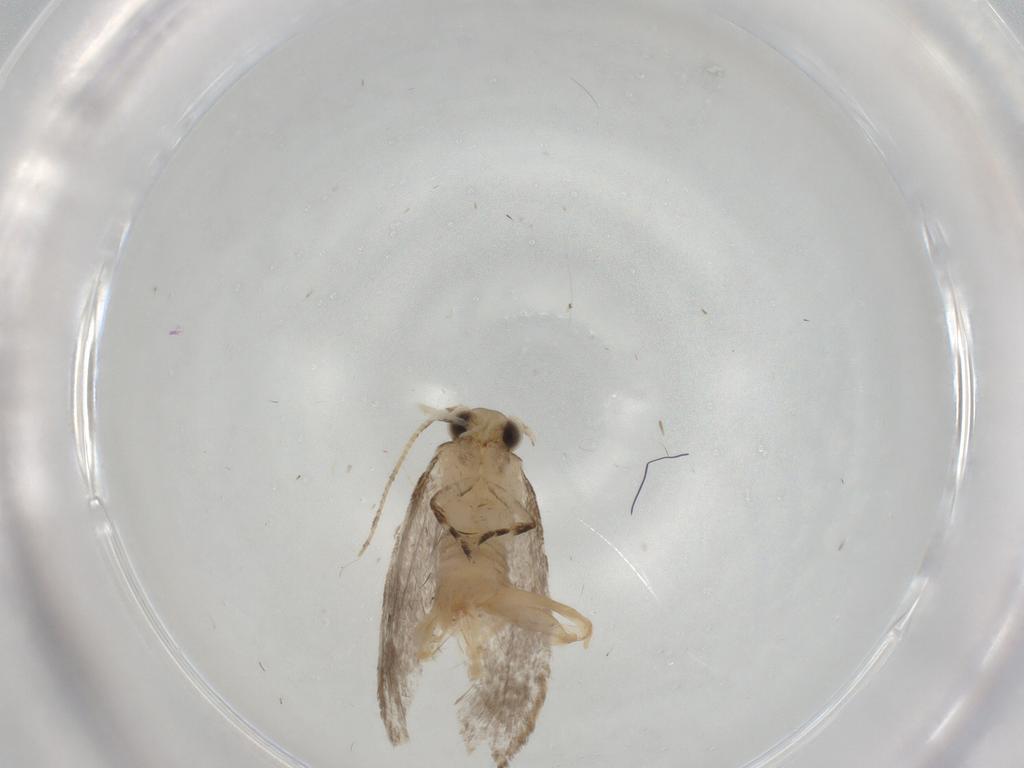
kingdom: Animalia
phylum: Arthropoda
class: Insecta
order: Lepidoptera
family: Tineidae
